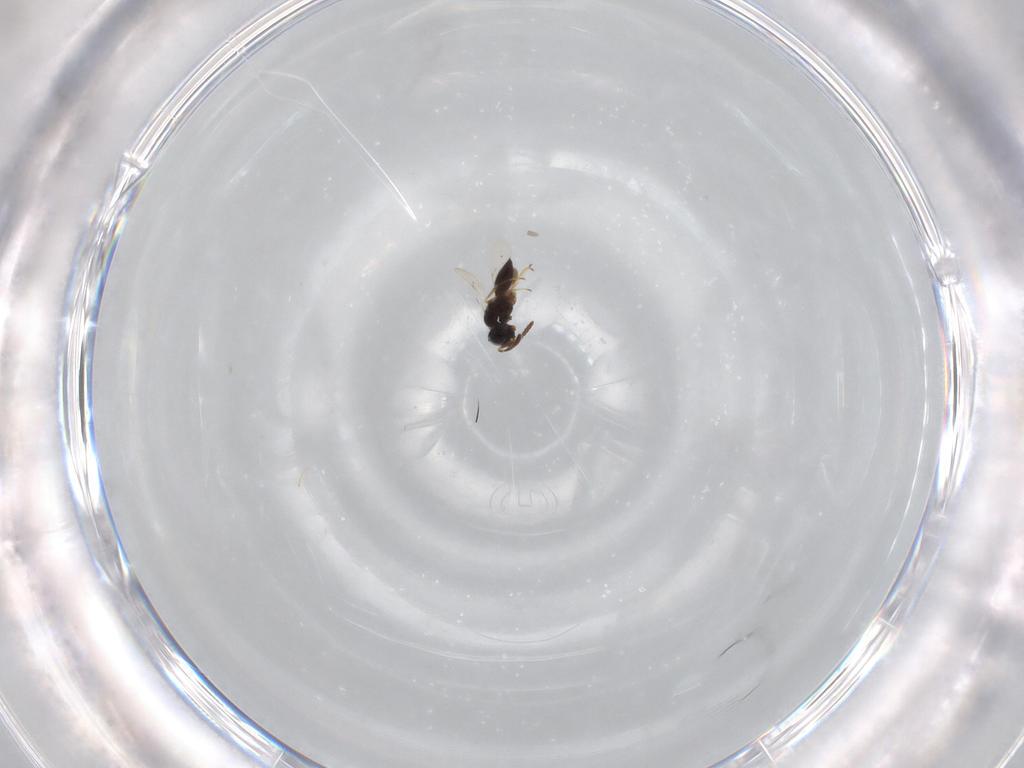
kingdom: Animalia
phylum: Arthropoda
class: Insecta
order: Hymenoptera
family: Scelionidae
